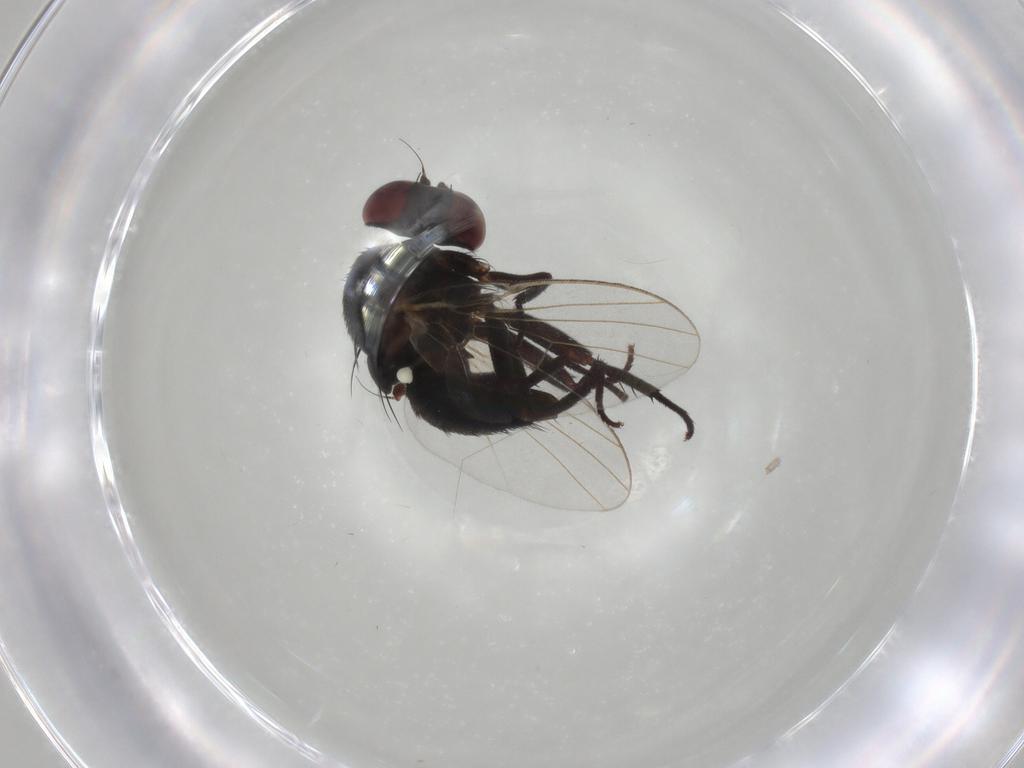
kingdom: Animalia
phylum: Arthropoda
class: Insecta
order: Diptera
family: Agromyzidae
